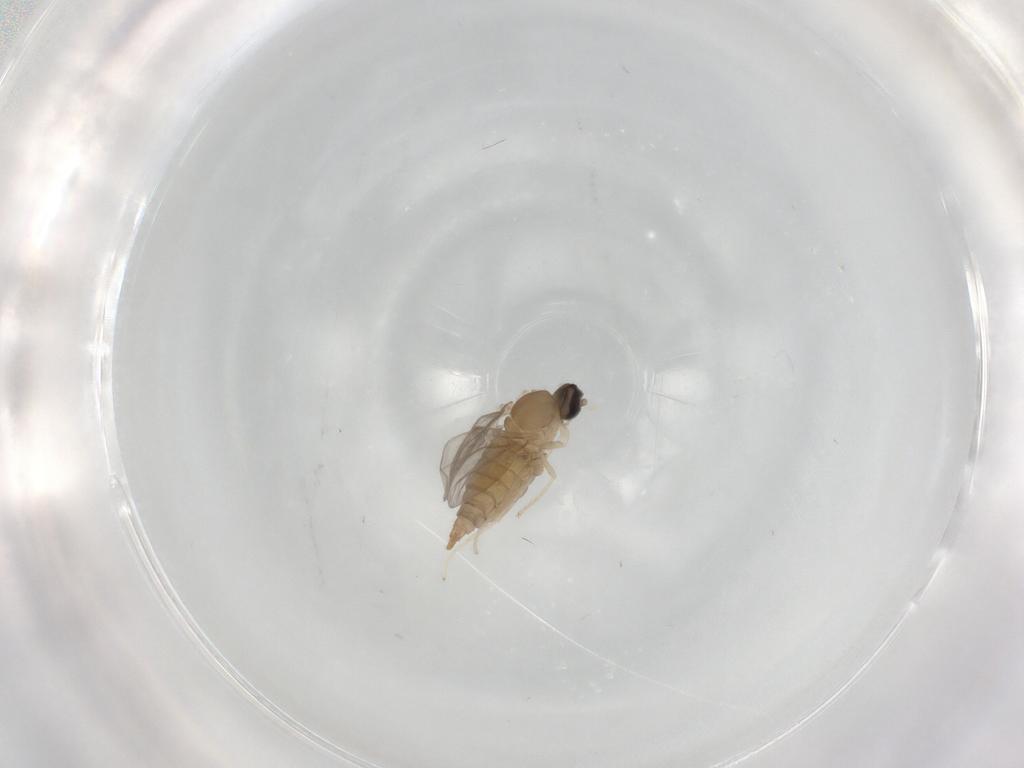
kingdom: Animalia
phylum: Arthropoda
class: Insecta
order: Diptera
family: Cecidomyiidae
